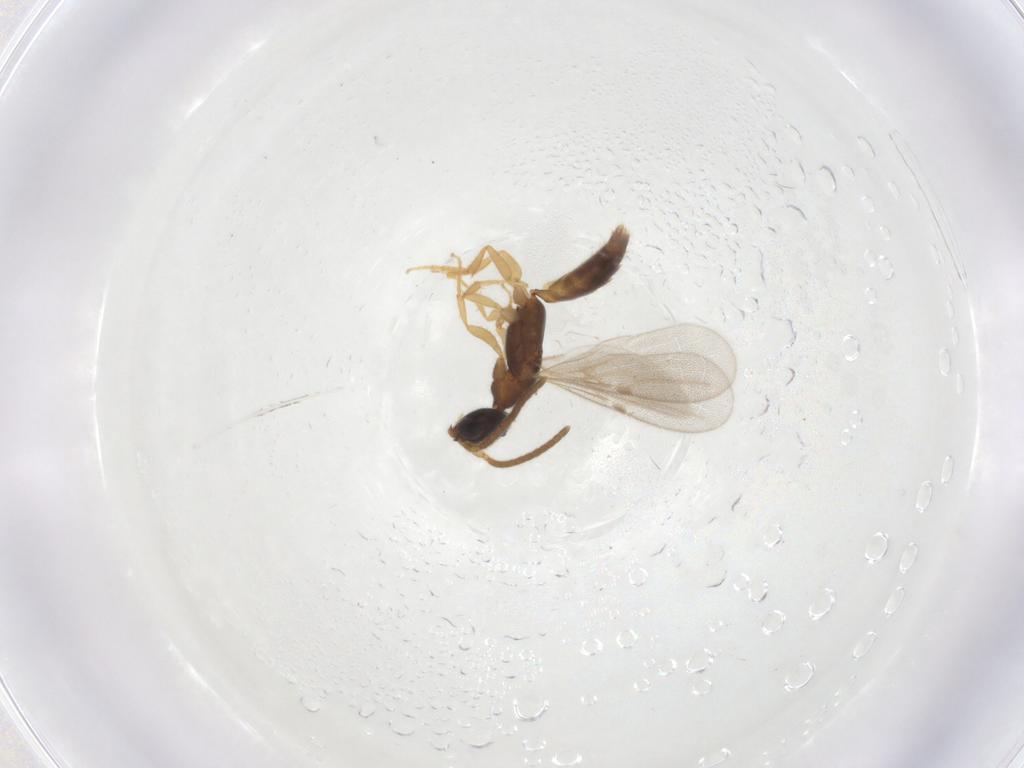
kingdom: Animalia
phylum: Arthropoda
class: Insecta
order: Hymenoptera
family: Bethylidae
